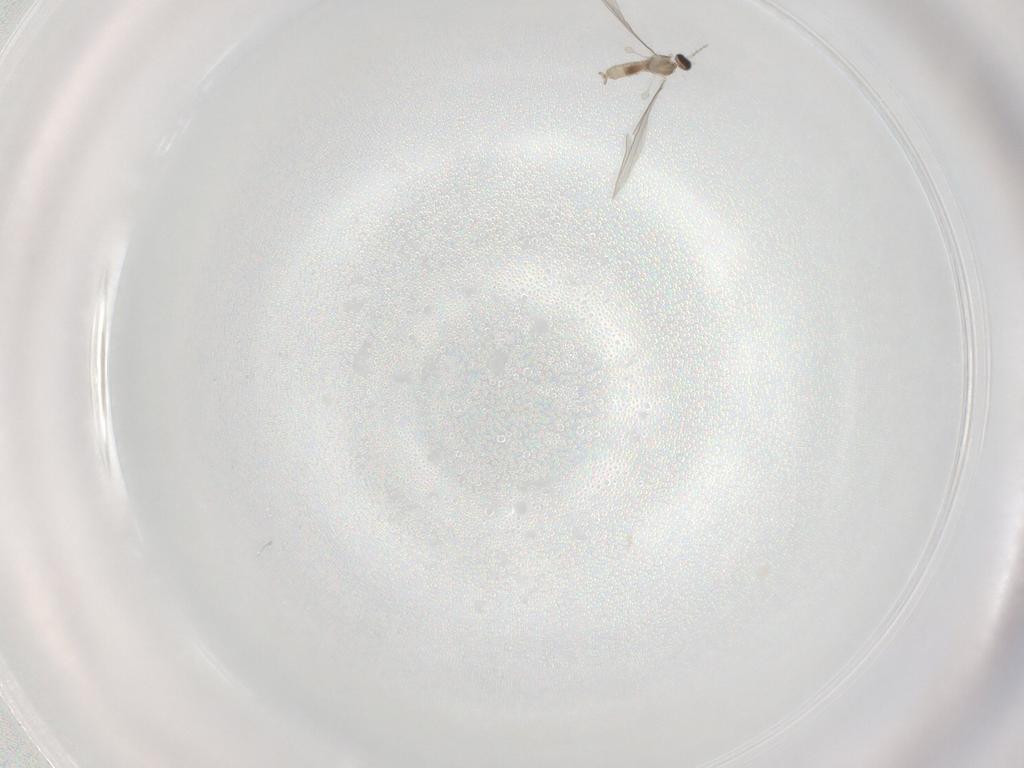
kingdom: Animalia
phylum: Arthropoda
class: Insecta
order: Diptera
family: Cecidomyiidae
